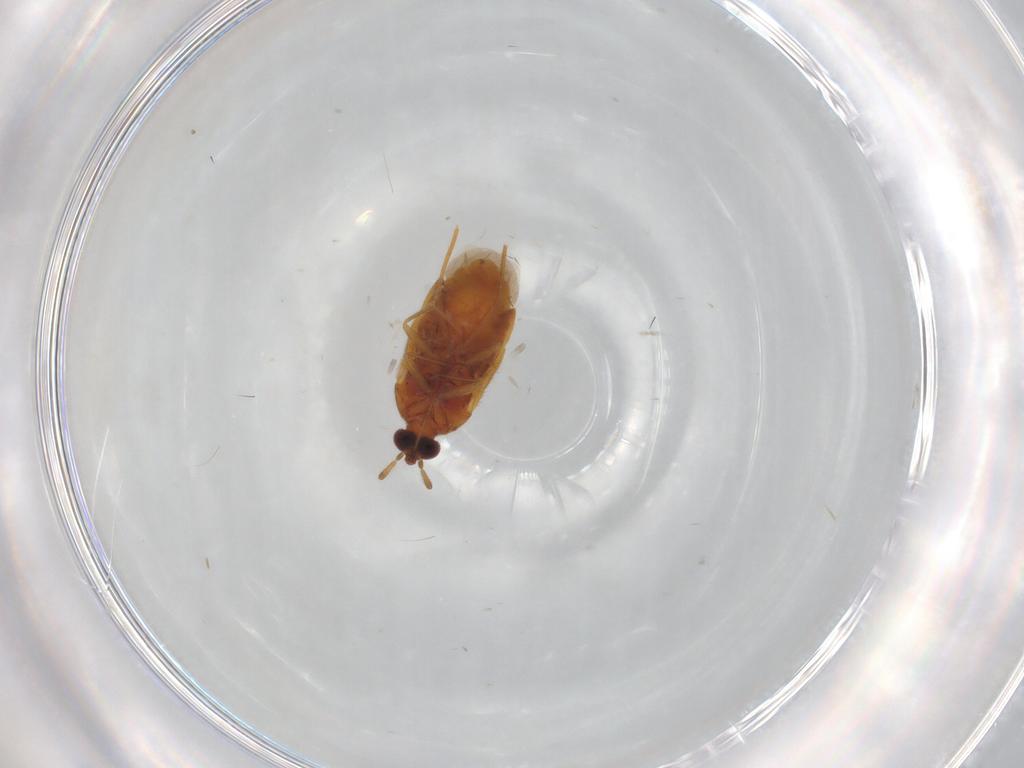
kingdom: Animalia
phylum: Arthropoda
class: Insecta
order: Hemiptera
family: Anthocoridae
